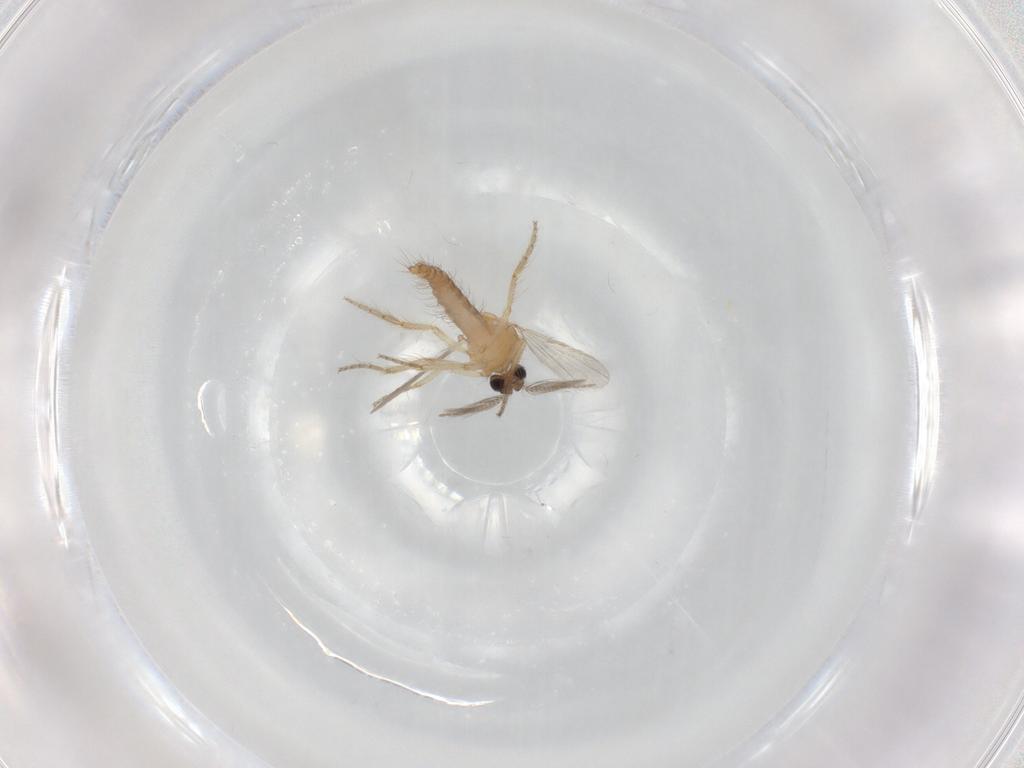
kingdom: Animalia
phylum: Arthropoda
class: Insecta
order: Diptera
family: Ceratopogonidae
